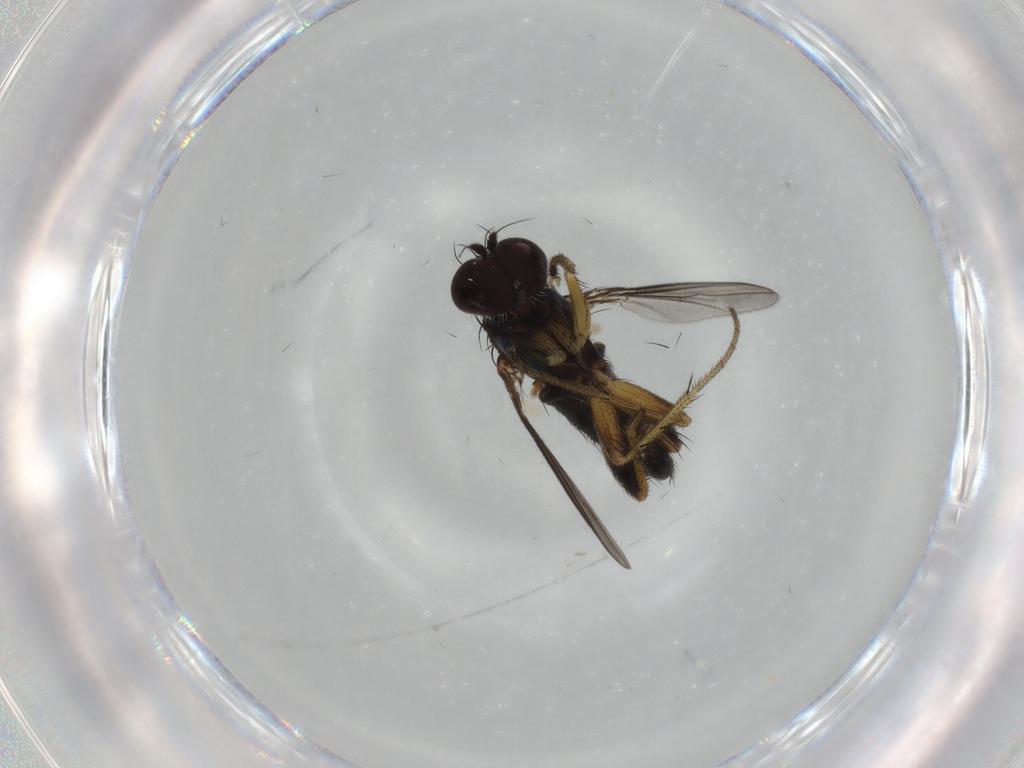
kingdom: Animalia
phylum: Arthropoda
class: Insecta
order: Diptera
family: Dolichopodidae
